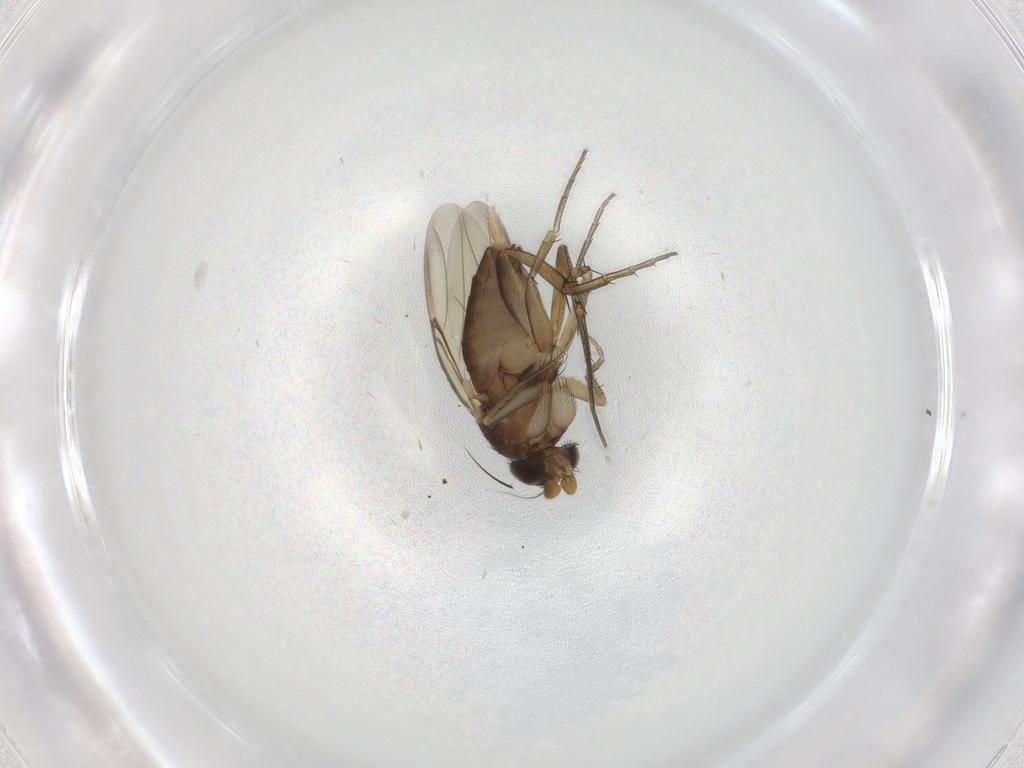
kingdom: Animalia
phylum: Arthropoda
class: Insecta
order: Diptera
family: Phoridae
